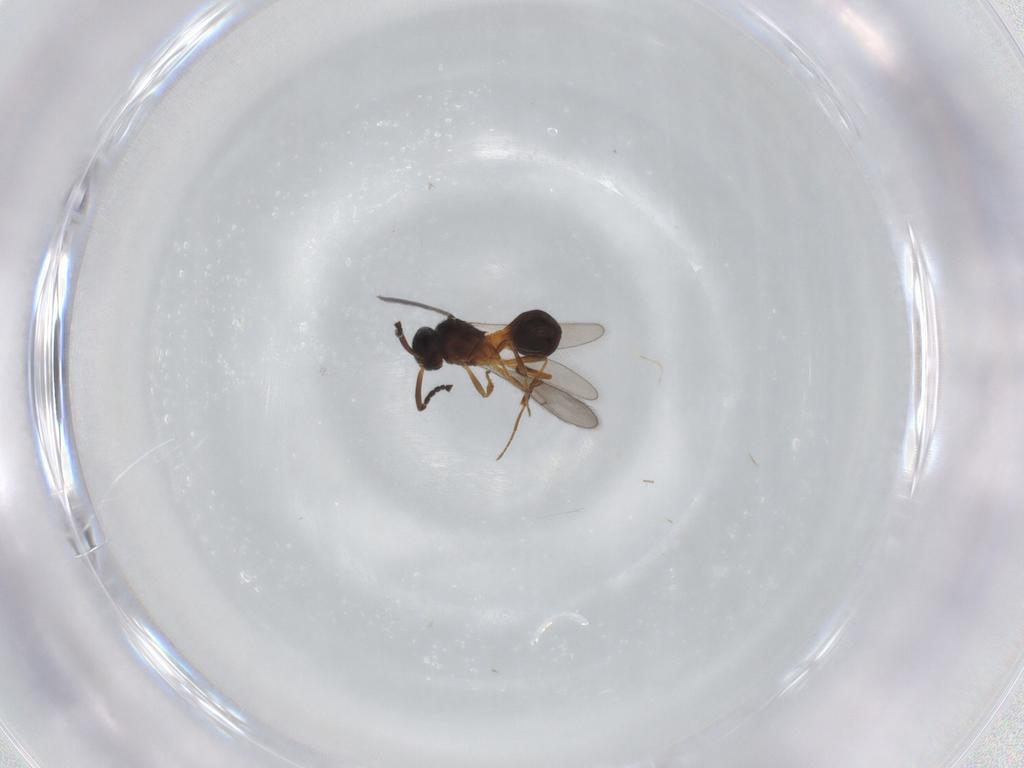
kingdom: Animalia
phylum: Arthropoda
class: Insecta
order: Hymenoptera
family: Scelionidae
